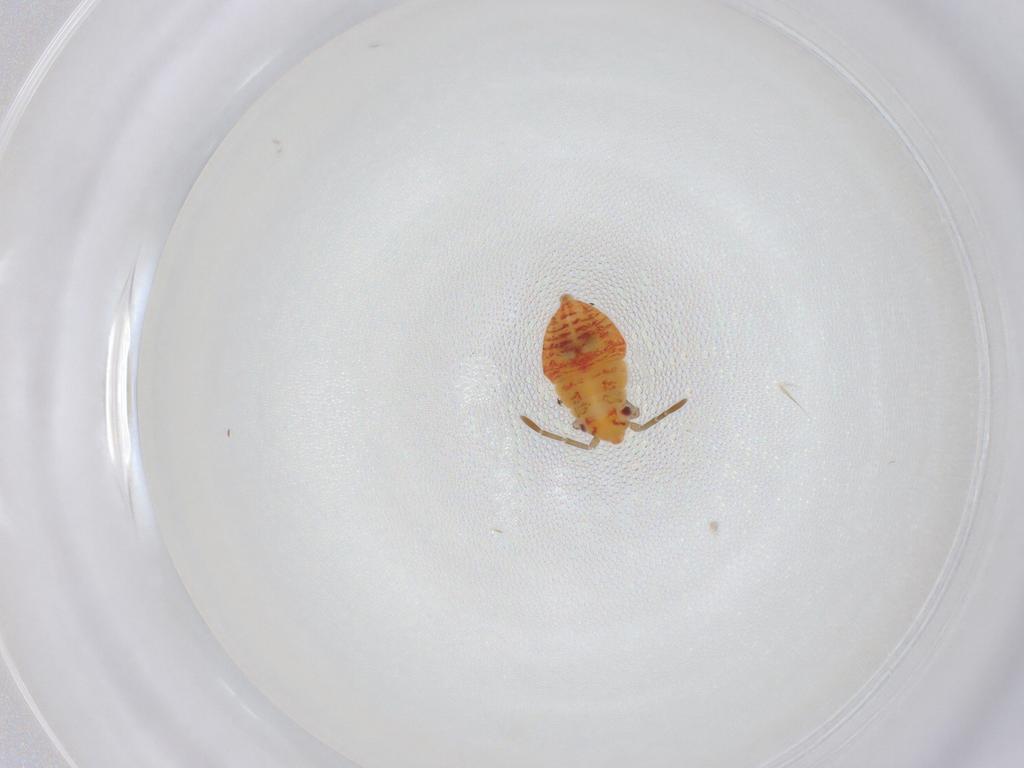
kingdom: Animalia
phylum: Arthropoda
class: Insecta
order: Hemiptera
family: Miridae
